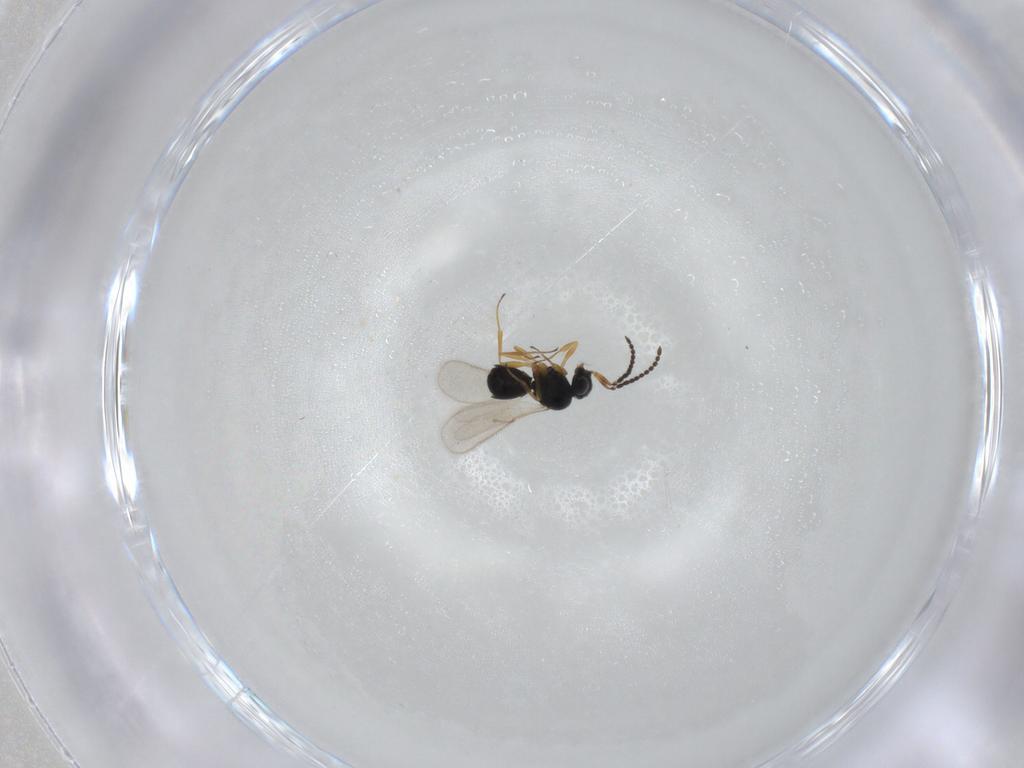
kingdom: Animalia
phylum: Arthropoda
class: Insecta
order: Hymenoptera
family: Scelionidae
